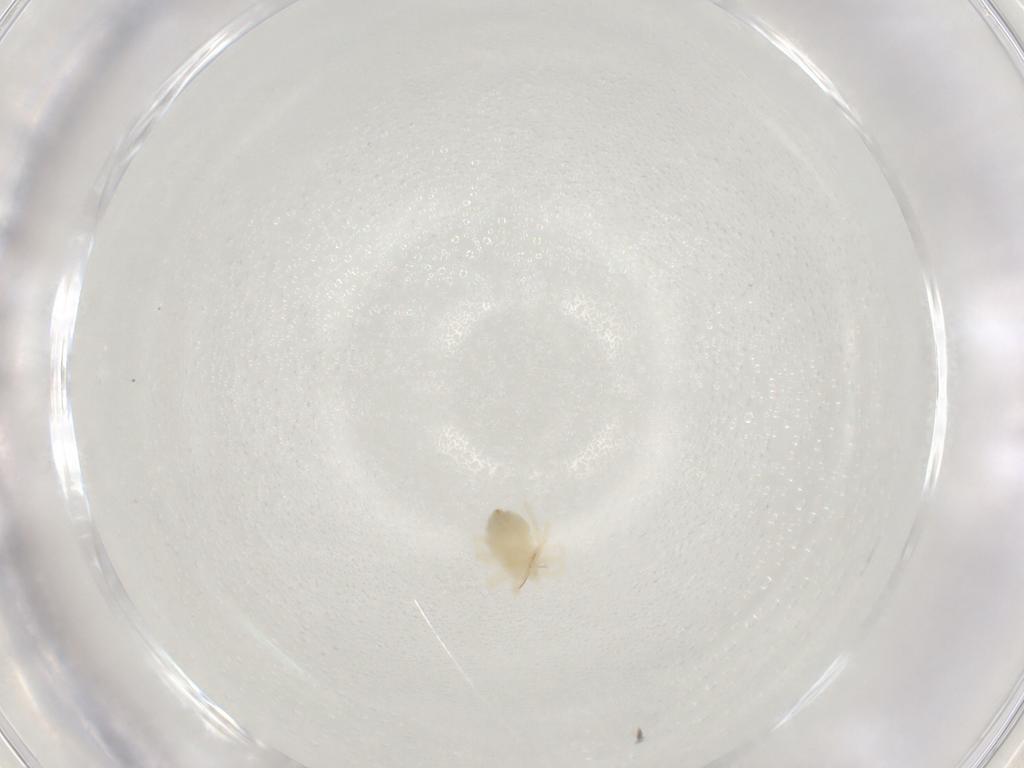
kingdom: Animalia
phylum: Arthropoda
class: Arachnida
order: Trombidiformes
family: Anystidae
